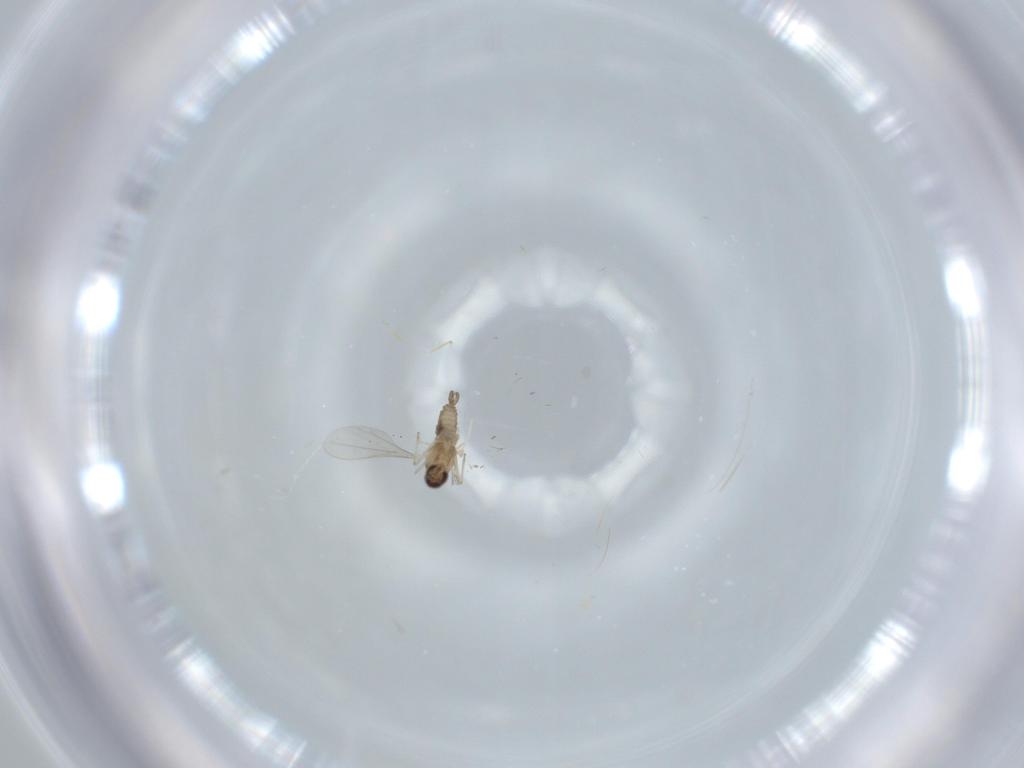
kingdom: Animalia
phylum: Arthropoda
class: Insecta
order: Diptera
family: Cecidomyiidae
